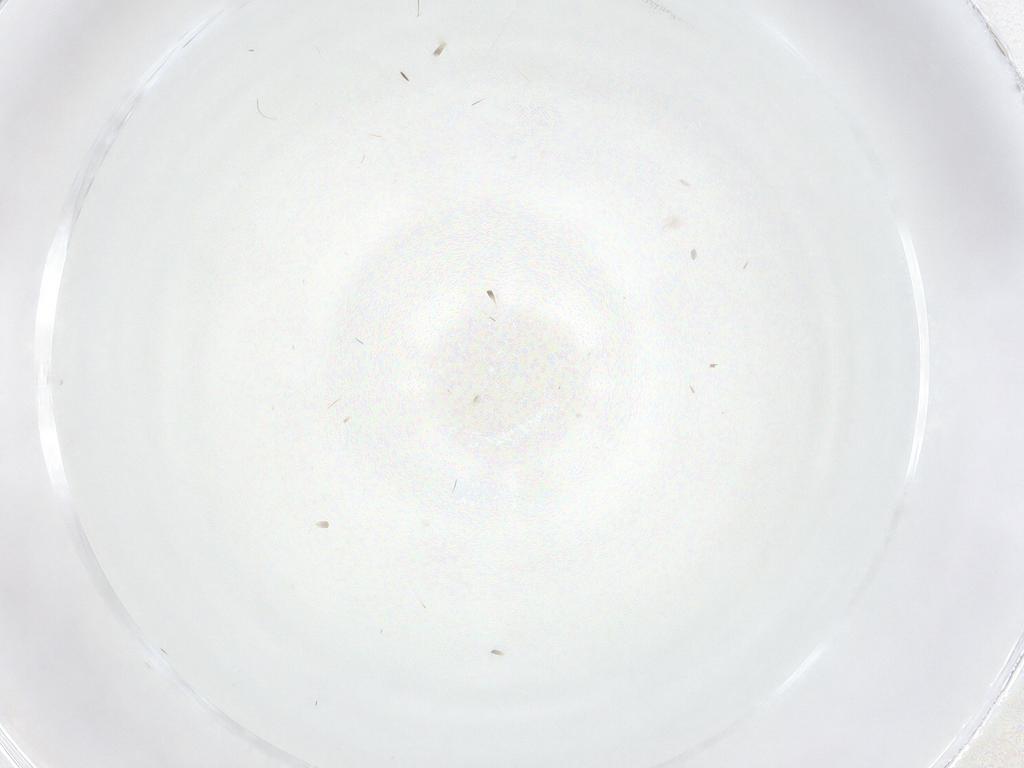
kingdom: Animalia
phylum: Arthropoda
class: Insecta
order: Diptera
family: Cecidomyiidae
